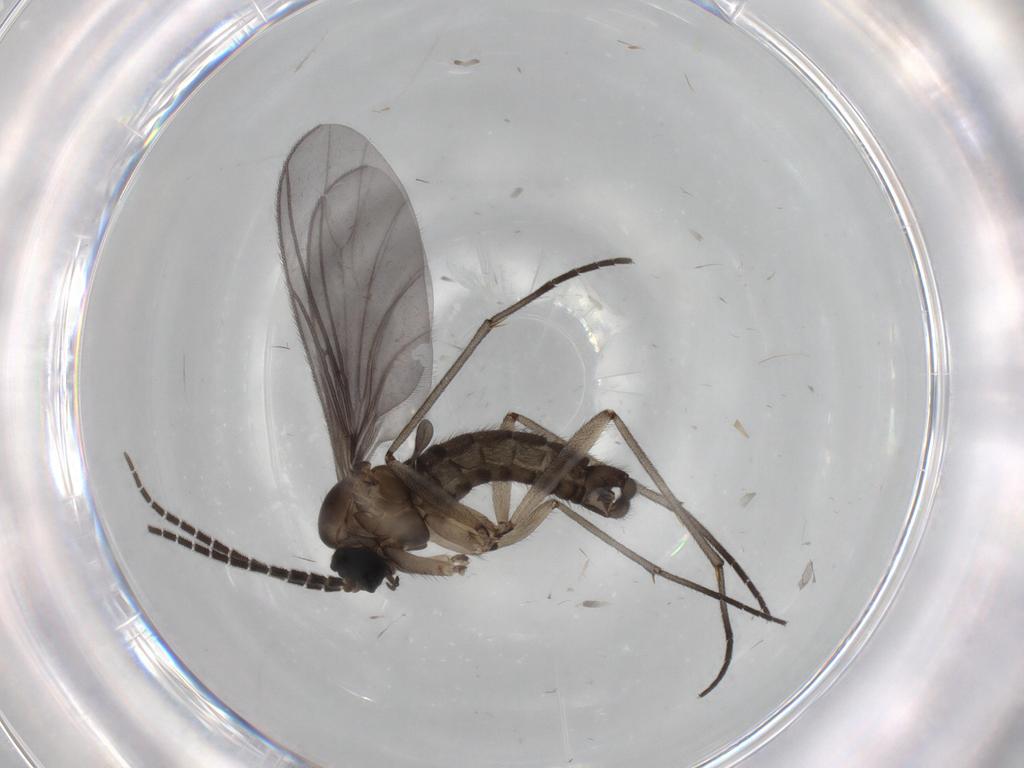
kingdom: Animalia
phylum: Arthropoda
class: Insecta
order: Diptera
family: Sciaridae
